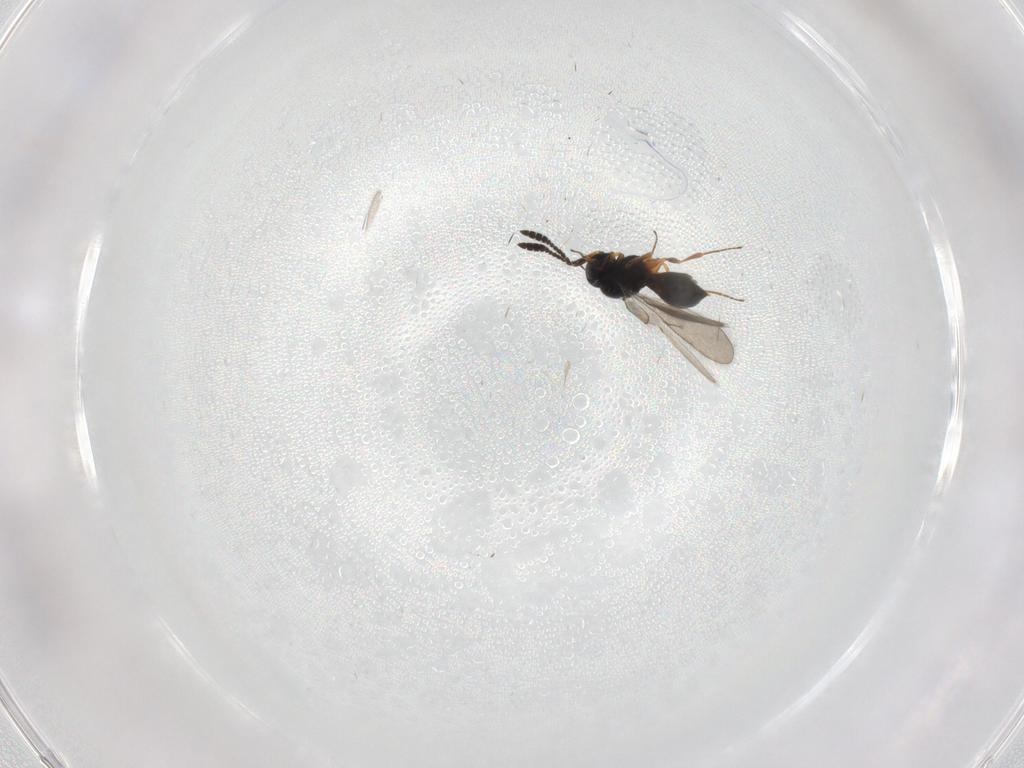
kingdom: Animalia
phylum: Arthropoda
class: Insecta
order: Hymenoptera
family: Scelionidae
